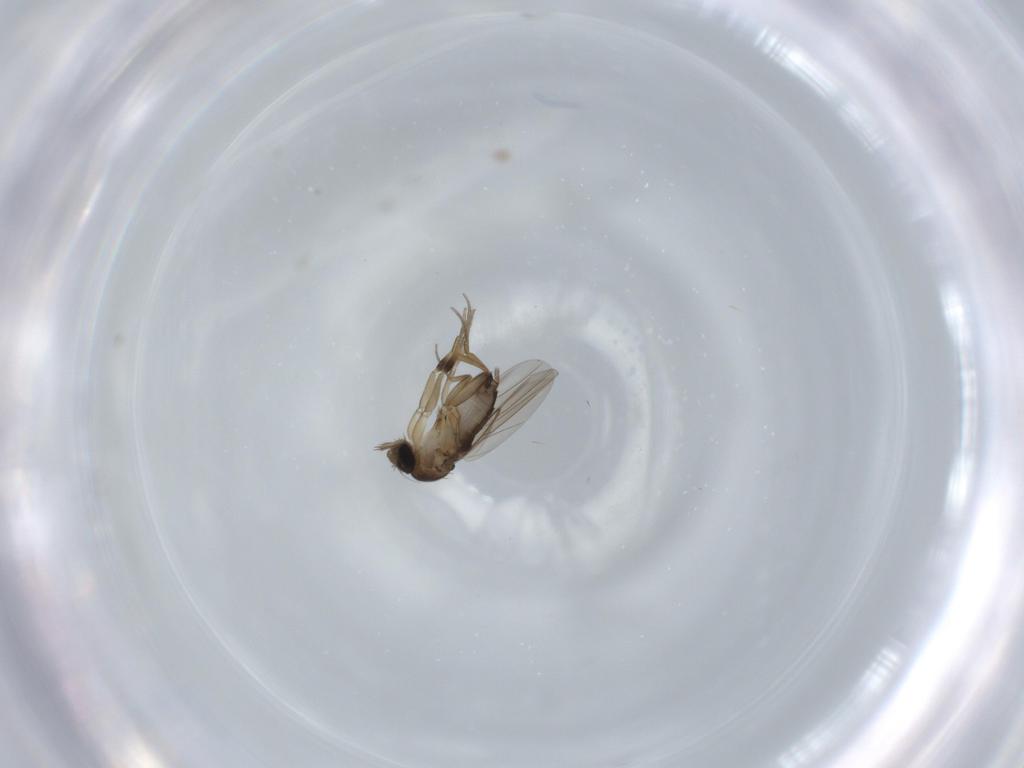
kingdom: Animalia
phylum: Arthropoda
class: Insecta
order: Diptera
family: Phoridae
